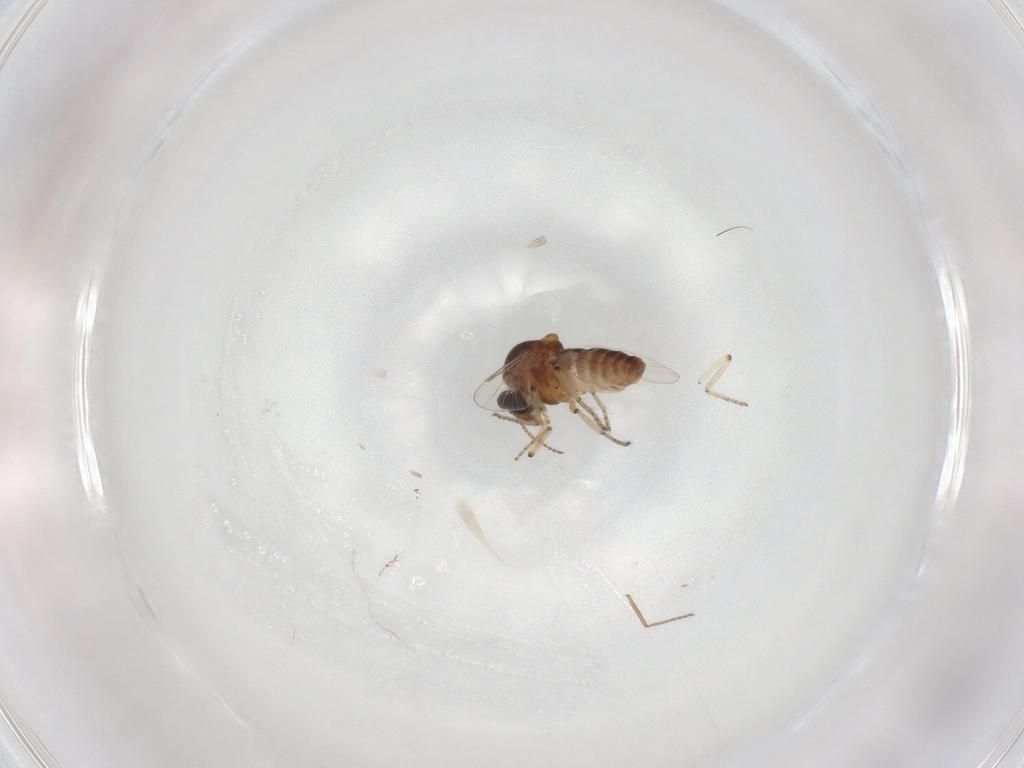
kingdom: Animalia
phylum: Arthropoda
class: Insecta
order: Diptera
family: Ceratopogonidae
